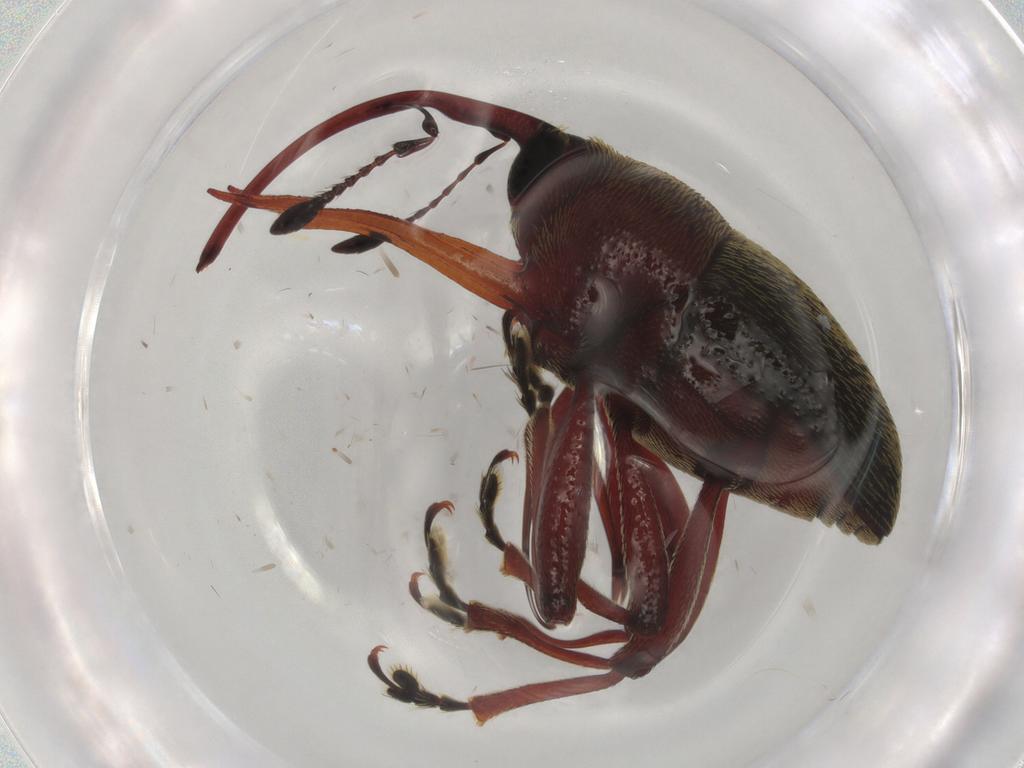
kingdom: Animalia
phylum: Arthropoda
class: Insecta
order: Coleoptera
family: Curculionidae
